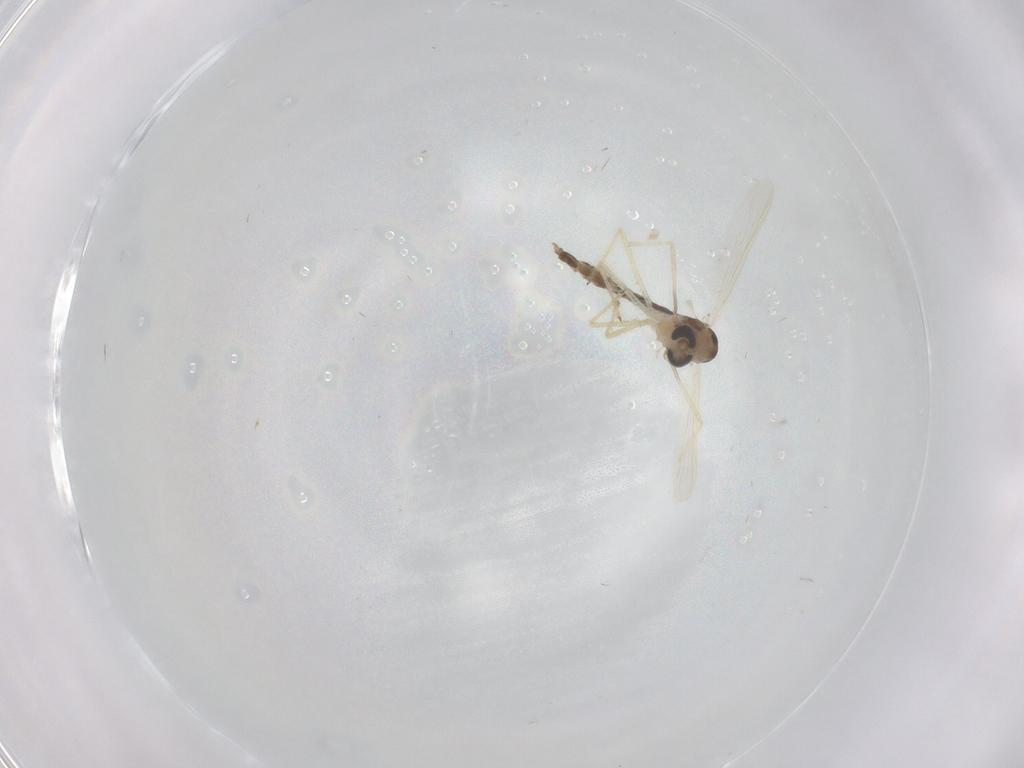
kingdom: Animalia
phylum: Arthropoda
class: Insecta
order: Diptera
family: Chironomidae
